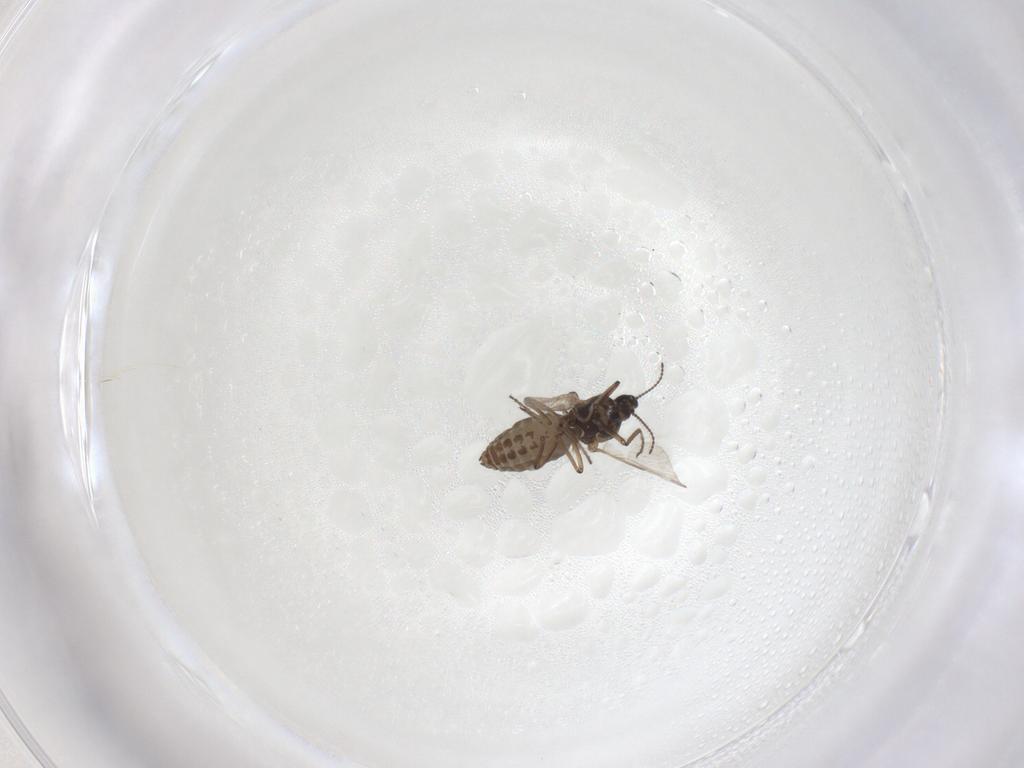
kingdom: Animalia
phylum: Arthropoda
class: Insecta
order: Diptera
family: Ceratopogonidae
